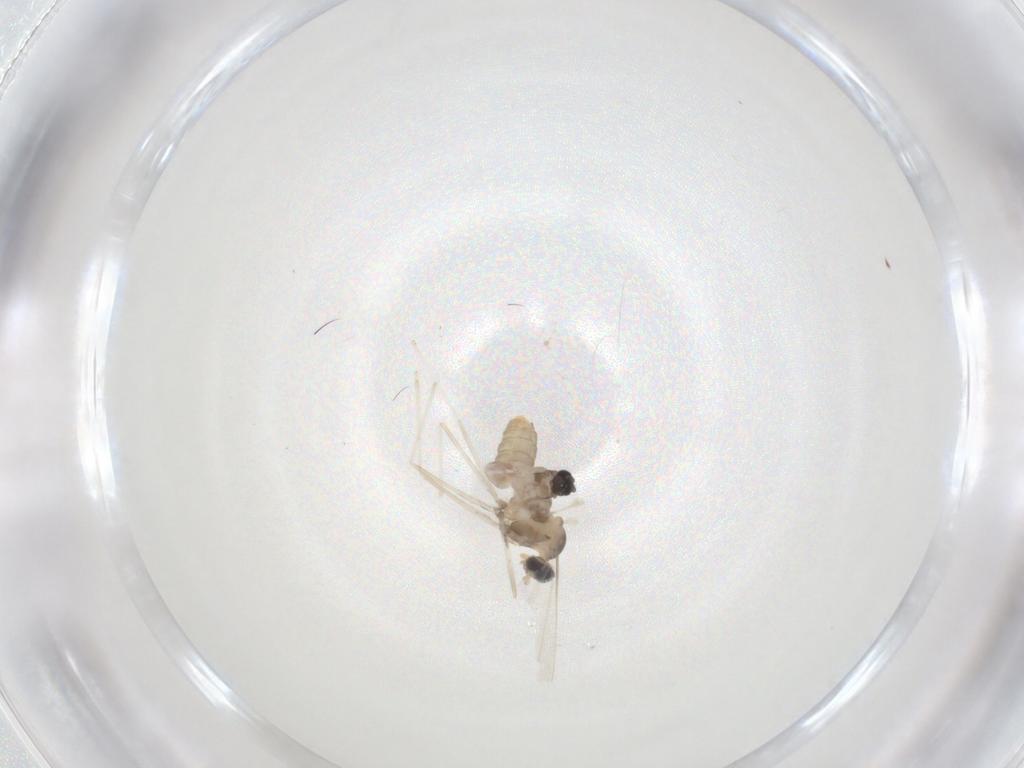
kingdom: Animalia
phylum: Arthropoda
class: Insecta
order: Diptera
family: Cecidomyiidae
